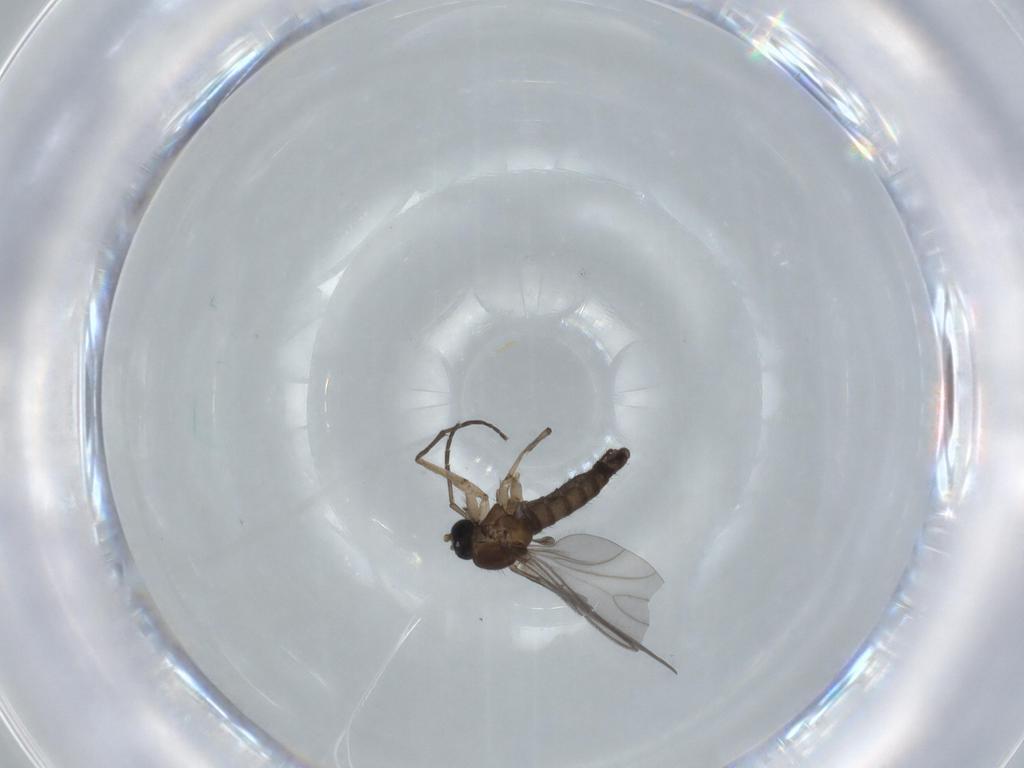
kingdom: Animalia
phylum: Arthropoda
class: Insecta
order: Diptera
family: Sciaridae
